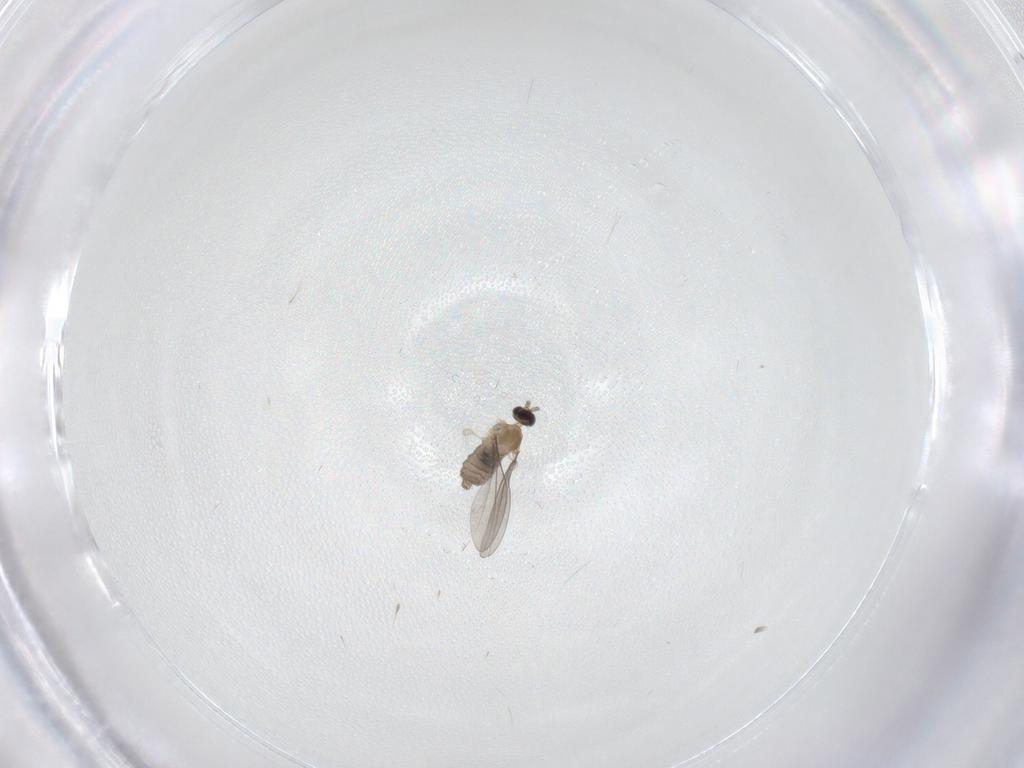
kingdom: Animalia
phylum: Arthropoda
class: Insecta
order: Diptera
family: Cecidomyiidae
